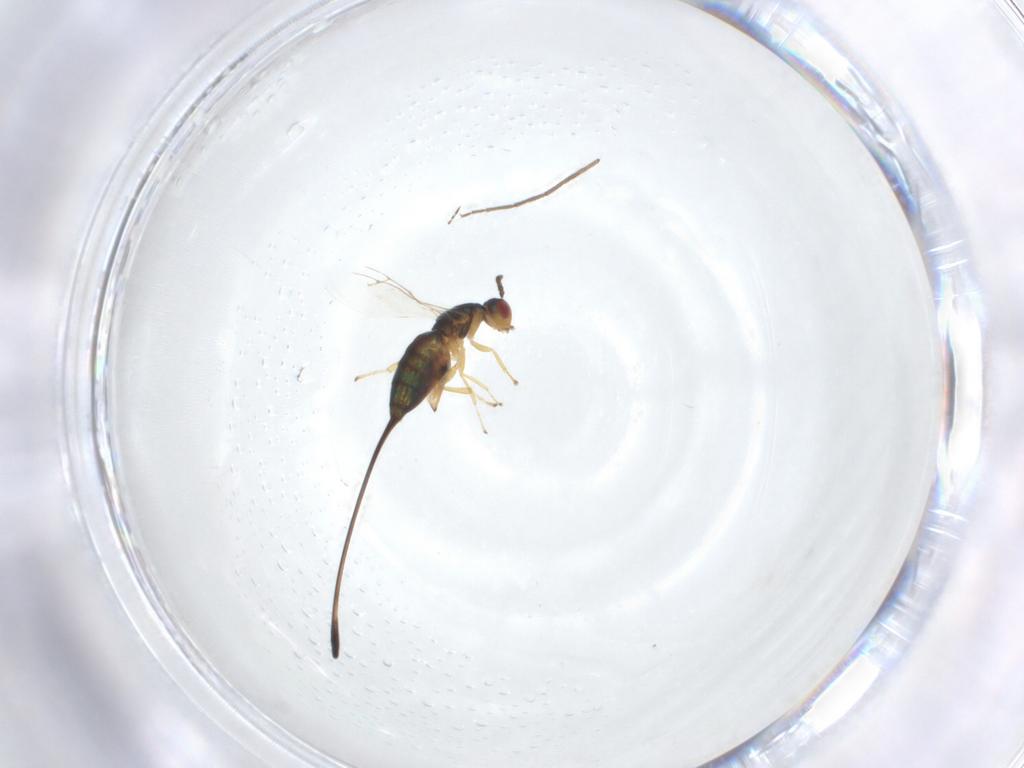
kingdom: Animalia
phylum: Arthropoda
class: Insecta
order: Hymenoptera
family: Pteromalidae
